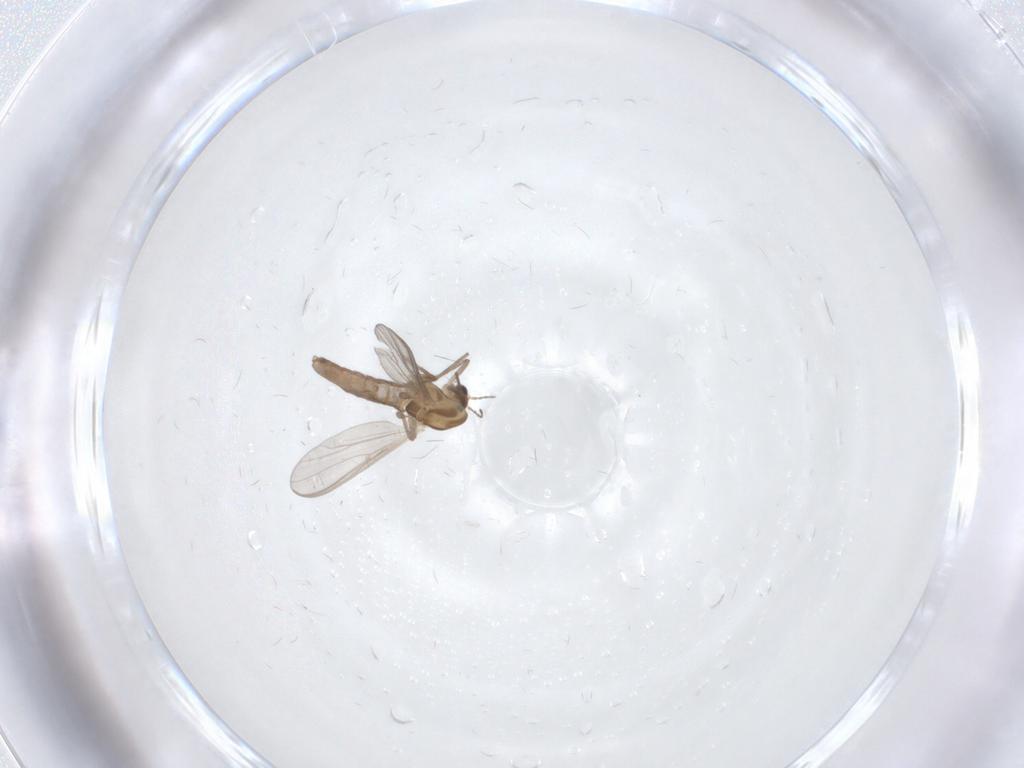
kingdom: Animalia
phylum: Arthropoda
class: Insecta
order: Diptera
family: Chironomidae
